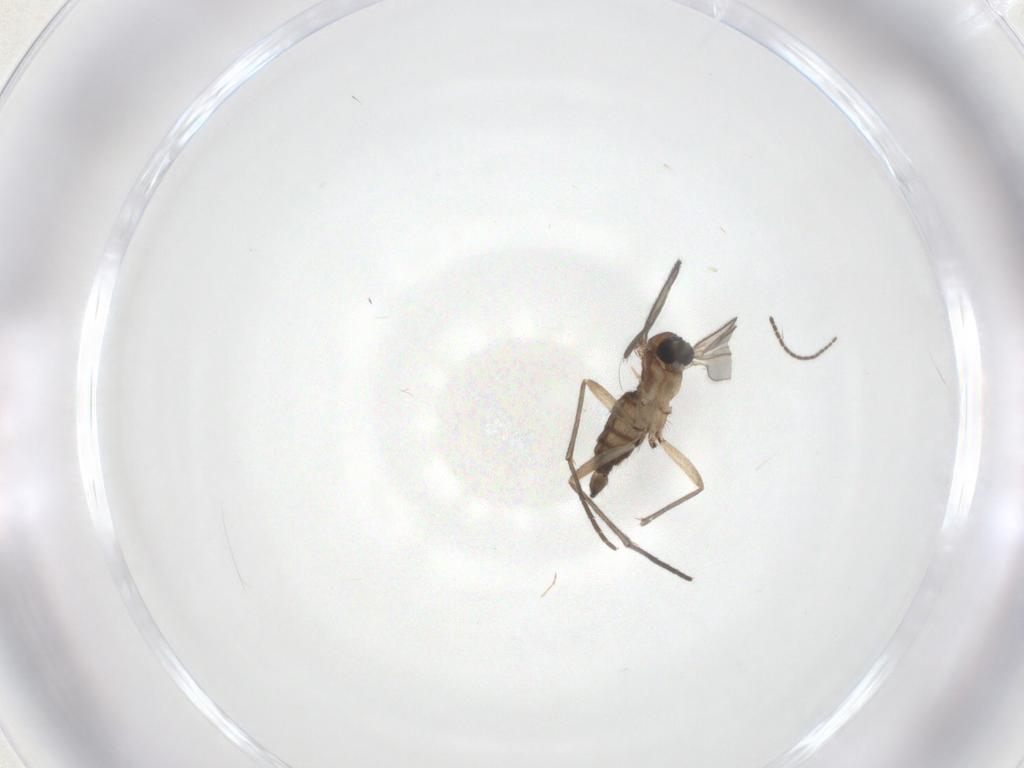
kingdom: Animalia
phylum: Arthropoda
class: Insecta
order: Diptera
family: Sciaridae
